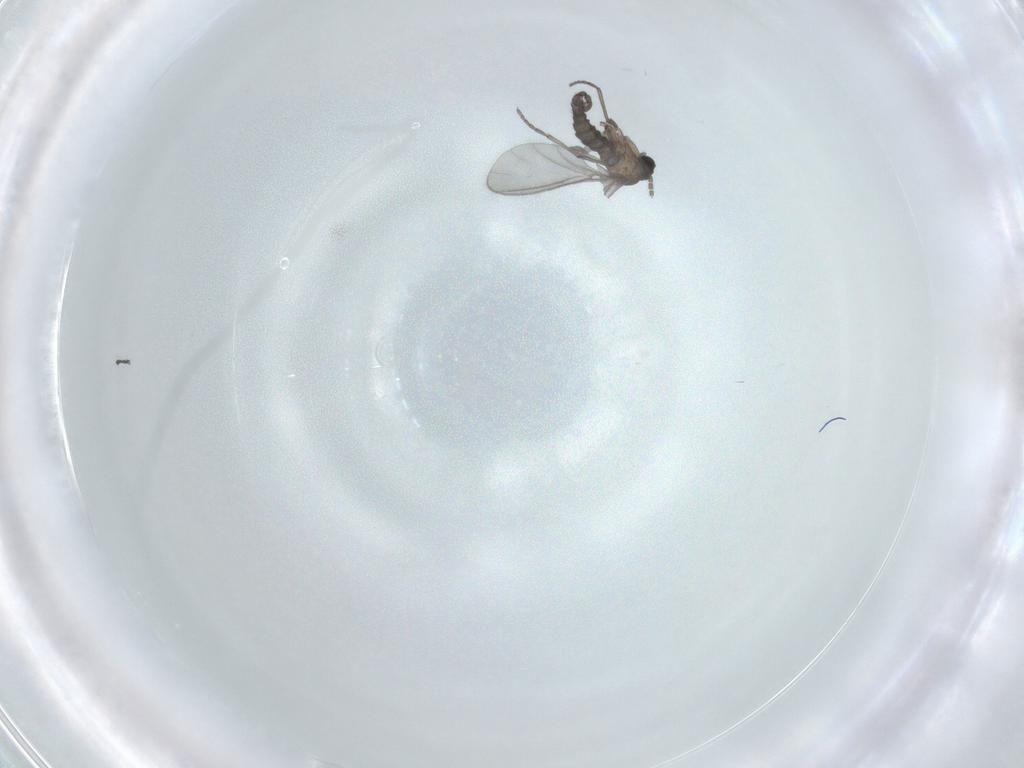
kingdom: Animalia
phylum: Arthropoda
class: Insecta
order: Diptera
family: Sciaridae
